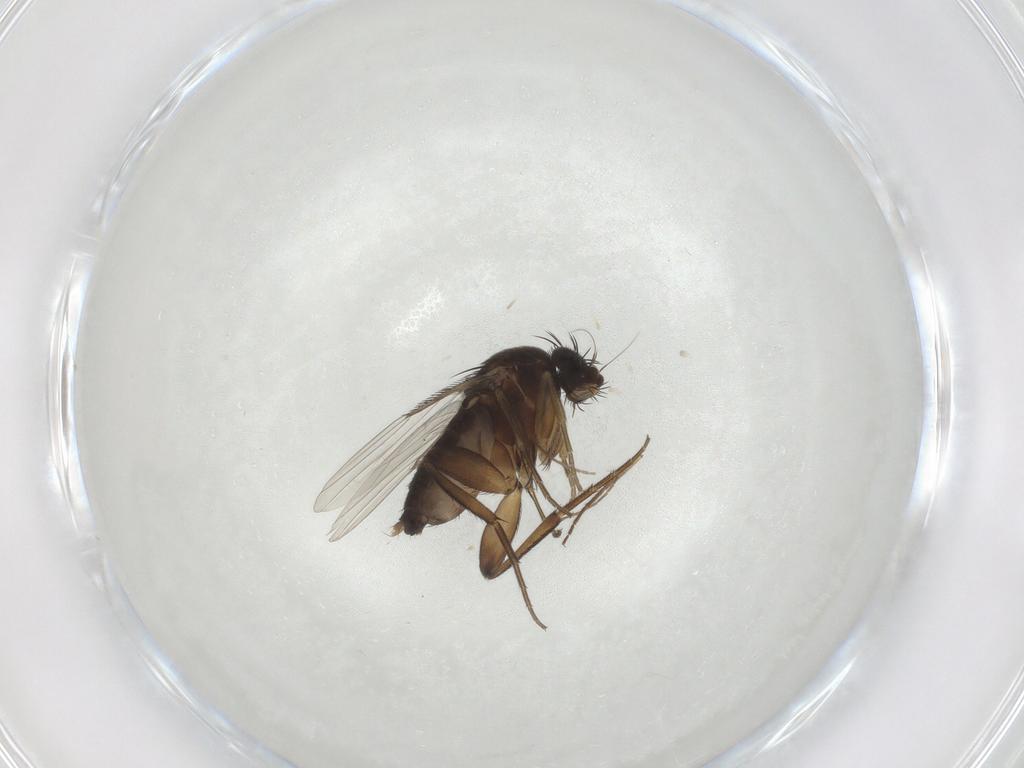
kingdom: Animalia
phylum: Arthropoda
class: Insecta
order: Diptera
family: Phoridae
